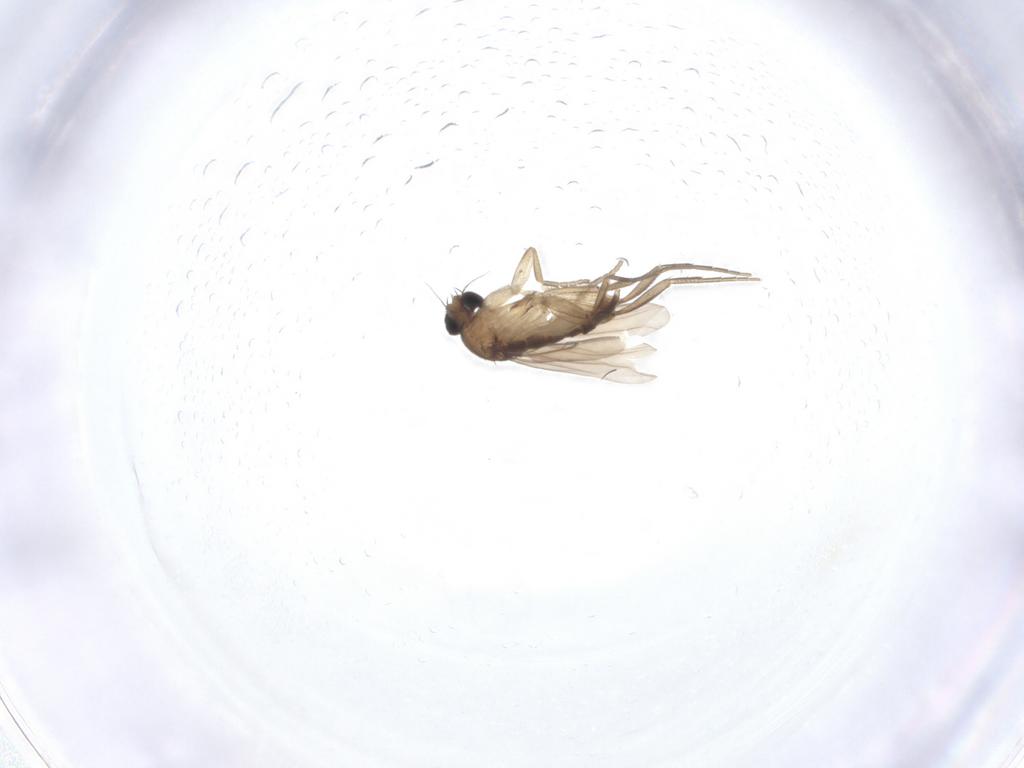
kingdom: Animalia
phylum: Arthropoda
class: Insecta
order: Diptera
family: Phoridae
